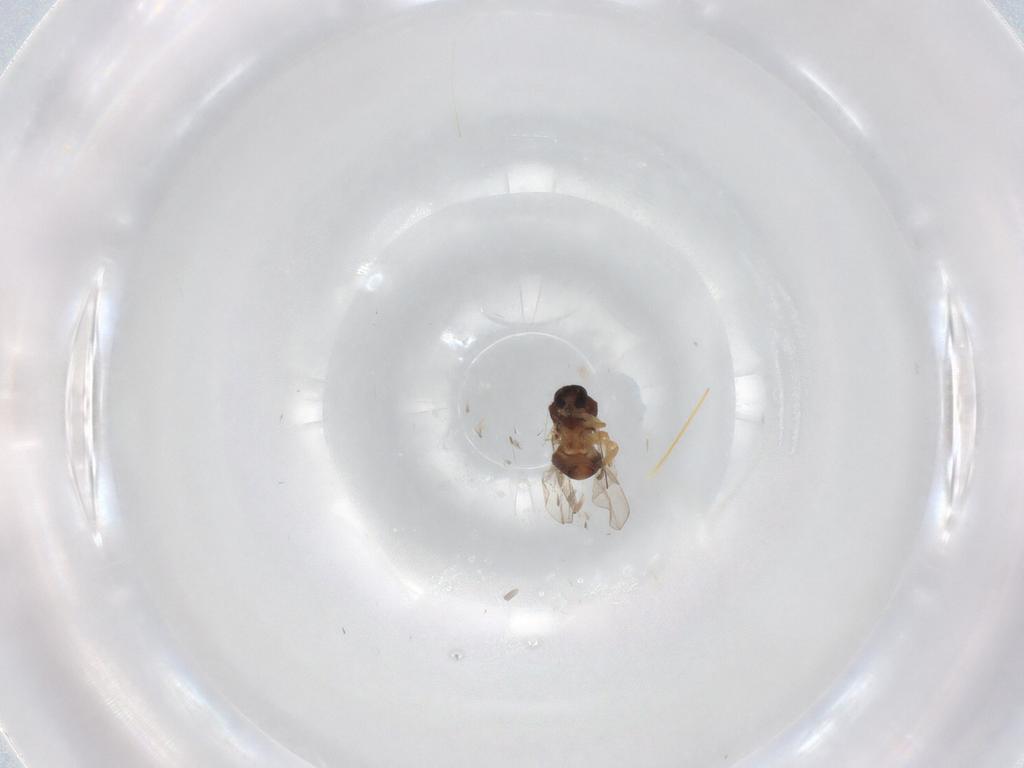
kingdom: Animalia
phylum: Arthropoda
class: Insecta
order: Diptera
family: Ceratopogonidae
